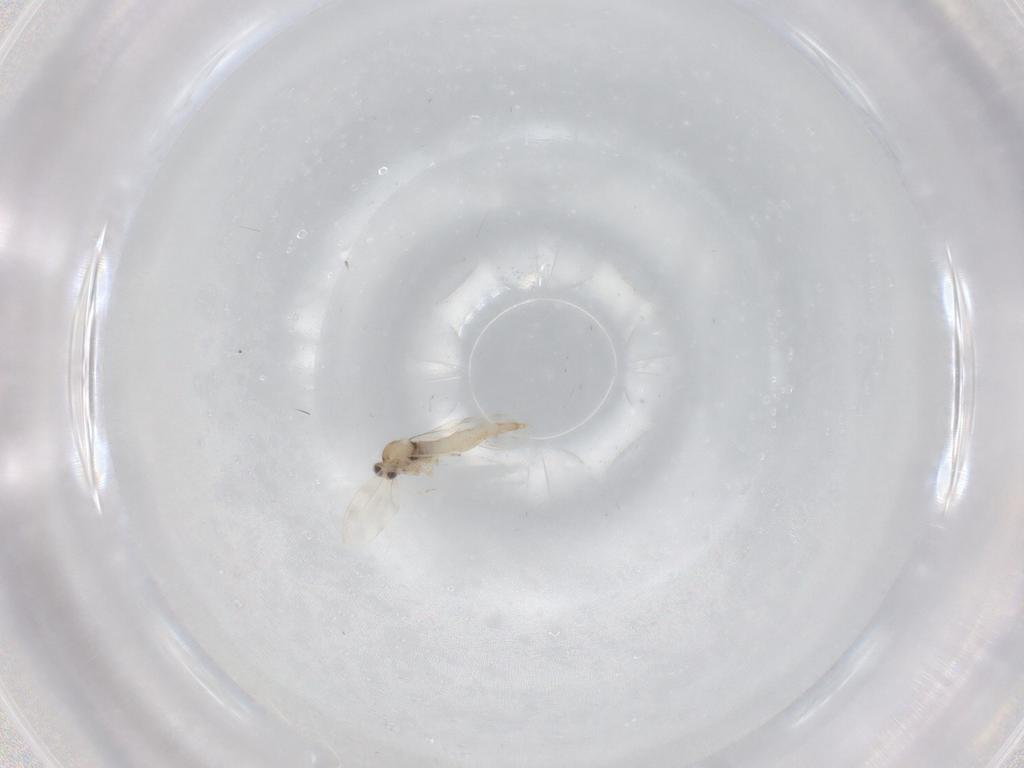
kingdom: Animalia
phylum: Arthropoda
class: Insecta
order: Diptera
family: Cecidomyiidae
